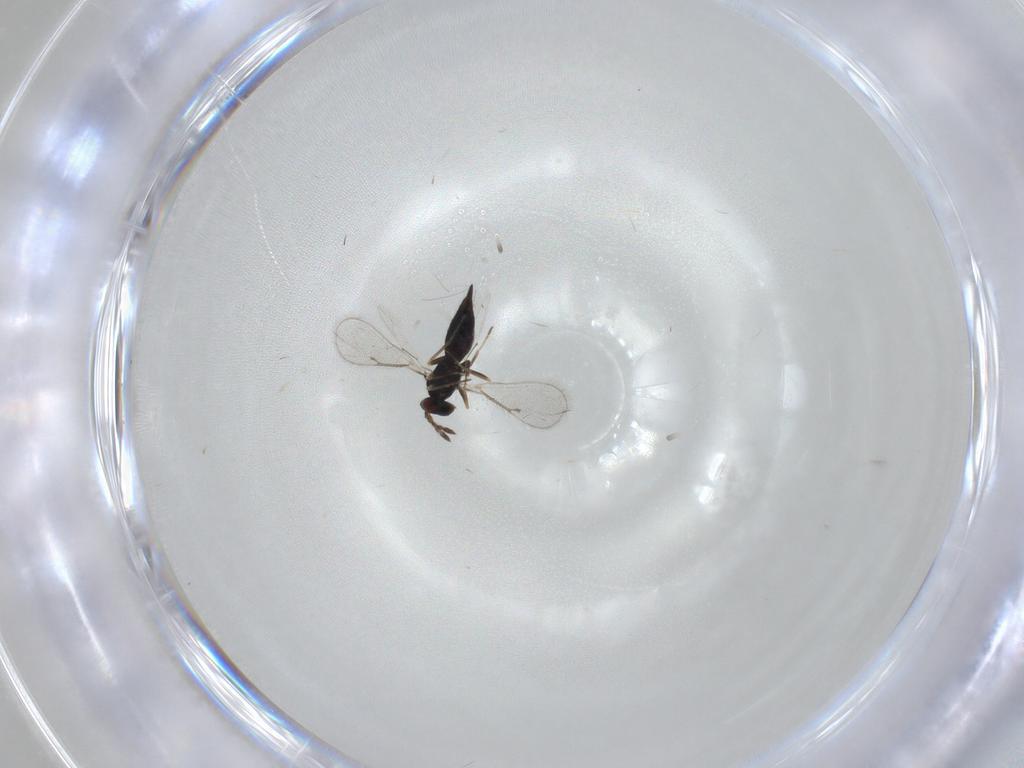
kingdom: Animalia
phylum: Arthropoda
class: Insecta
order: Hymenoptera
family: Eulophidae
